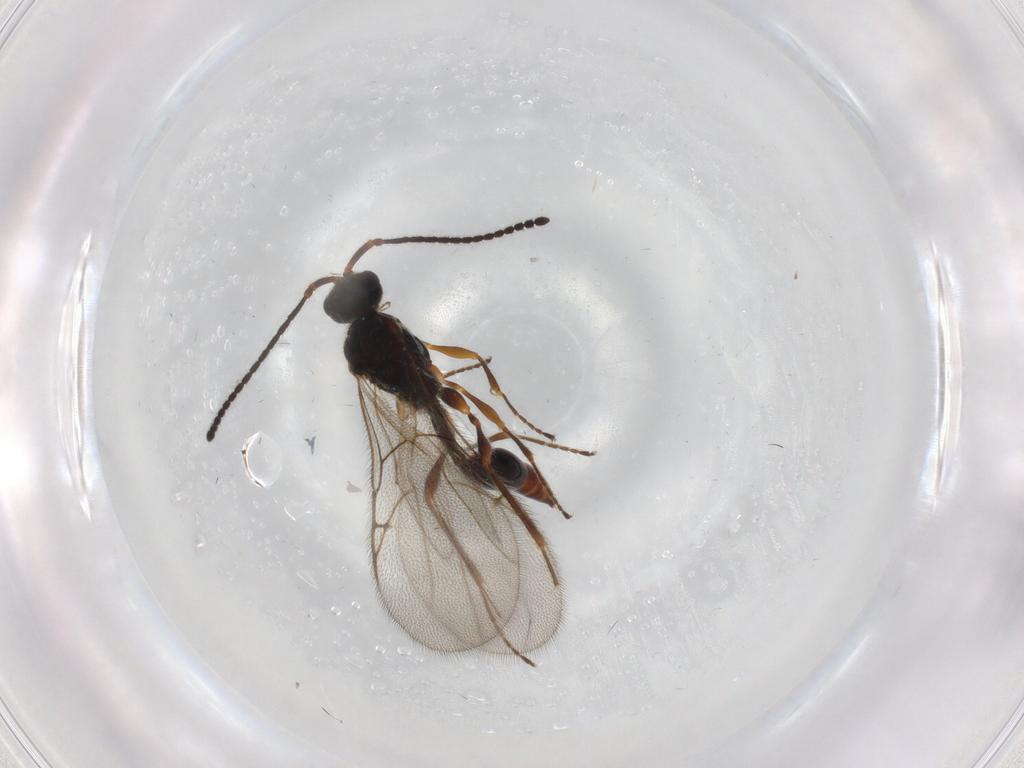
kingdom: Animalia
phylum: Arthropoda
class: Insecta
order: Hymenoptera
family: Diapriidae
